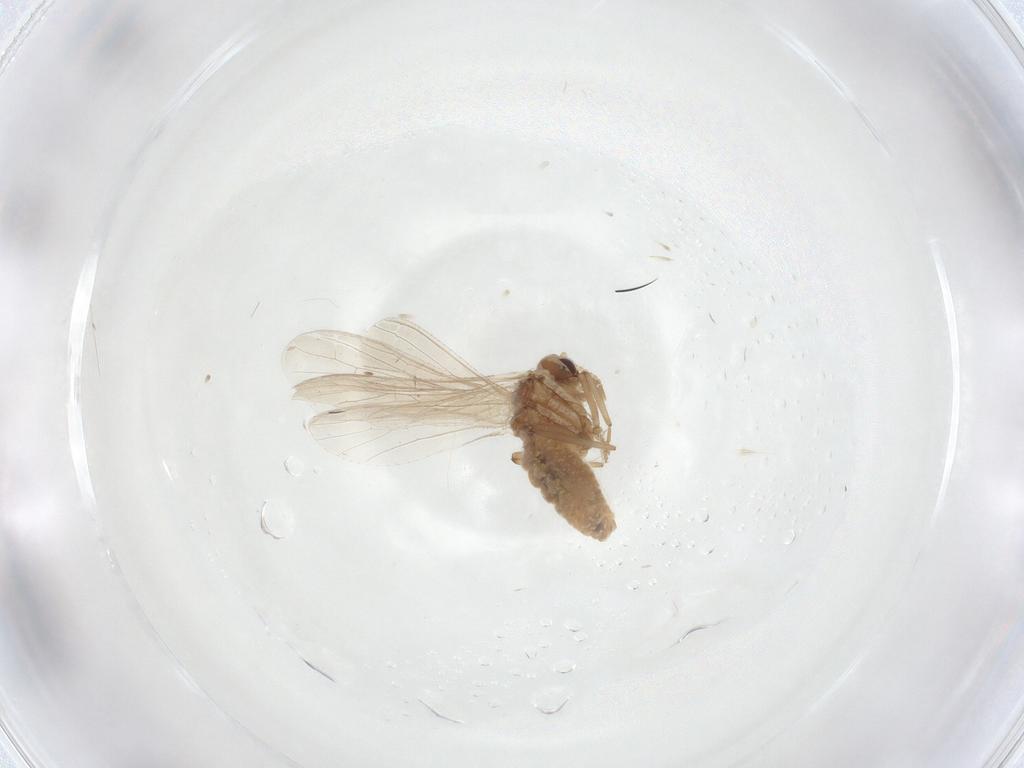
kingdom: Animalia
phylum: Arthropoda
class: Insecta
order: Neuroptera
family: Coniopterygidae
